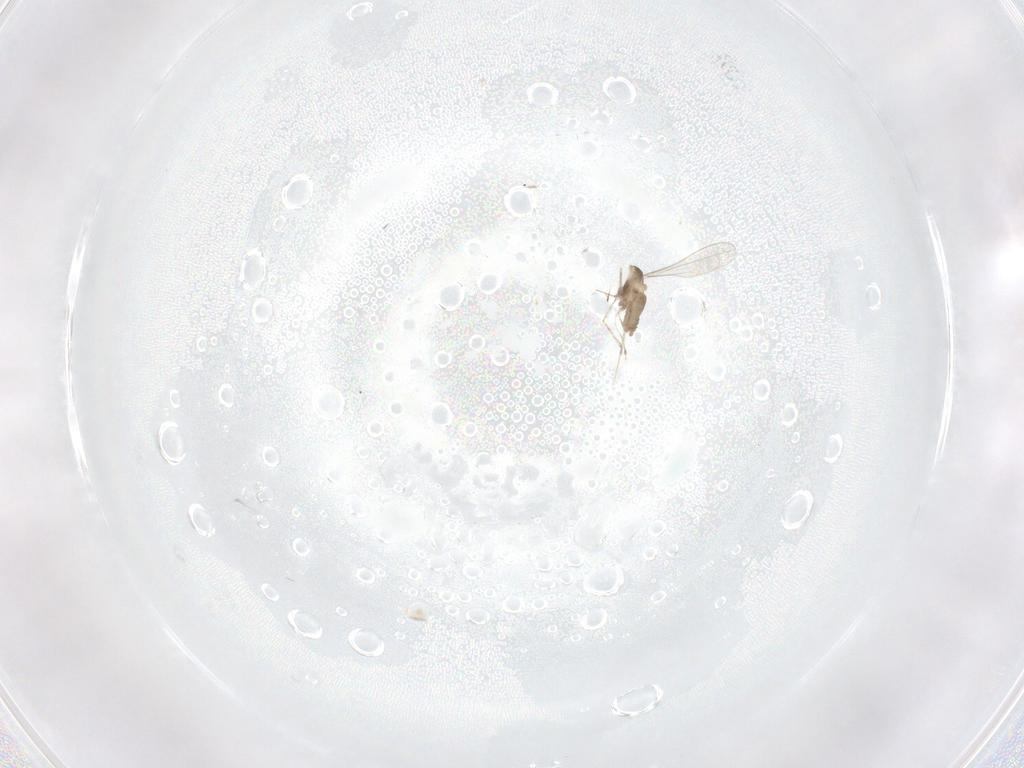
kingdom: Animalia
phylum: Arthropoda
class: Insecta
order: Diptera
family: Cecidomyiidae
